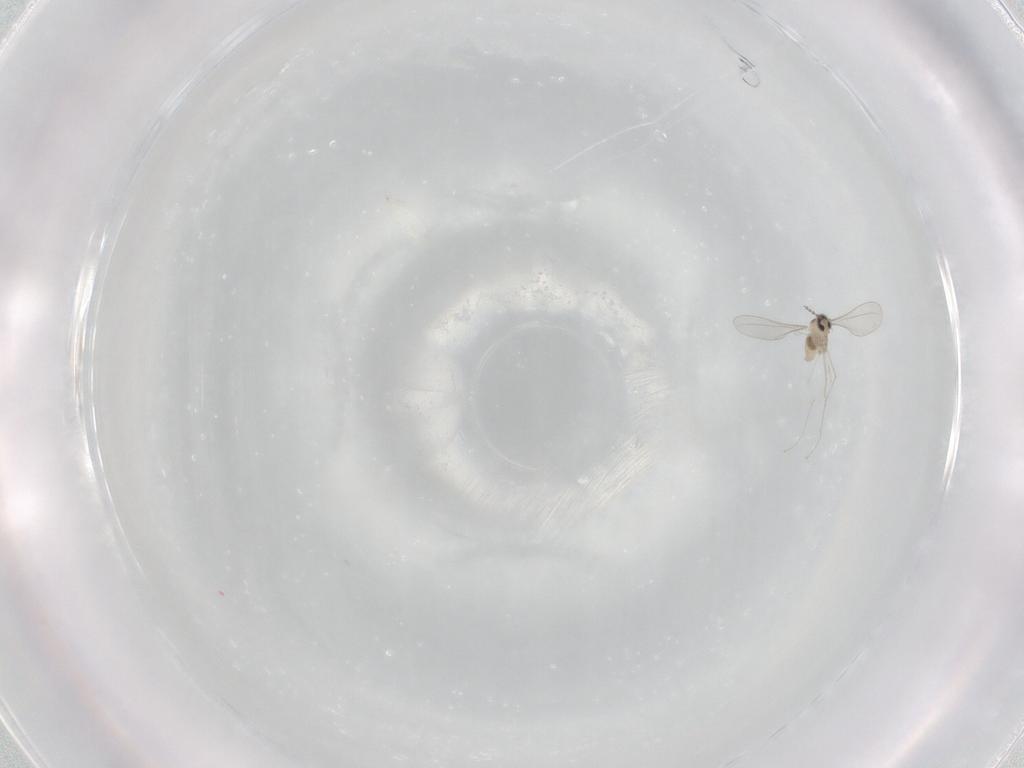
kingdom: Animalia
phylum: Arthropoda
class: Insecta
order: Diptera
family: Cecidomyiidae
